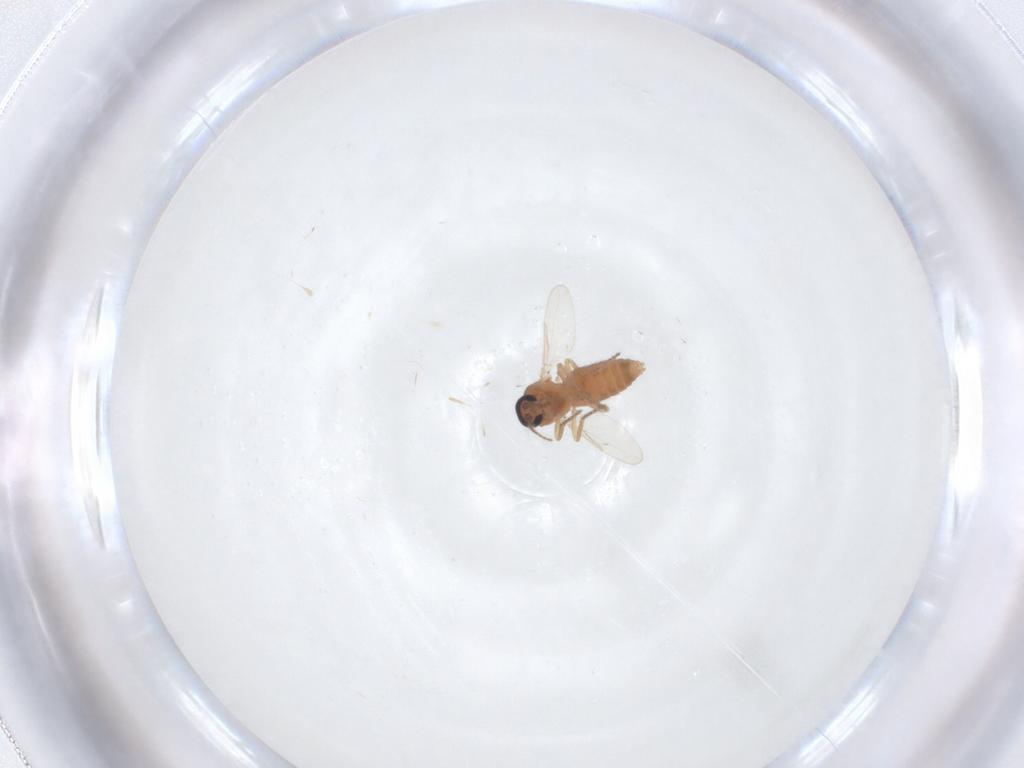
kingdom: Animalia
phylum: Arthropoda
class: Insecta
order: Diptera
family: Ceratopogonidae
